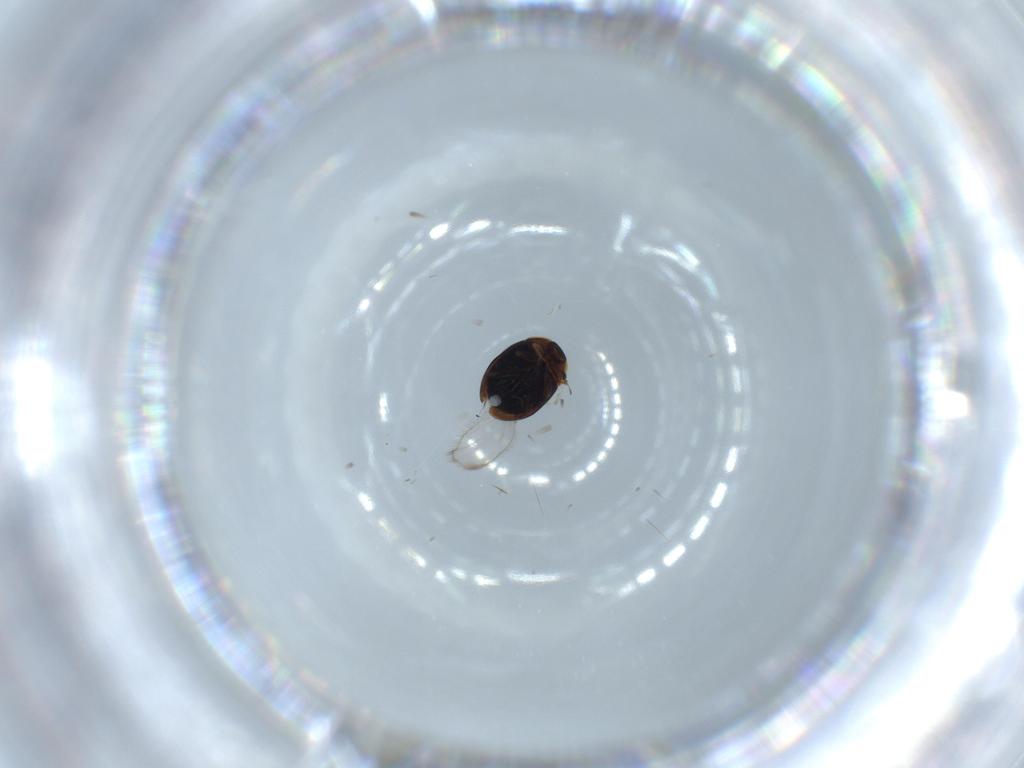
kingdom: Animalia
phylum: Arthropoda
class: Insecta
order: Coleoptera
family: Corylophidae
